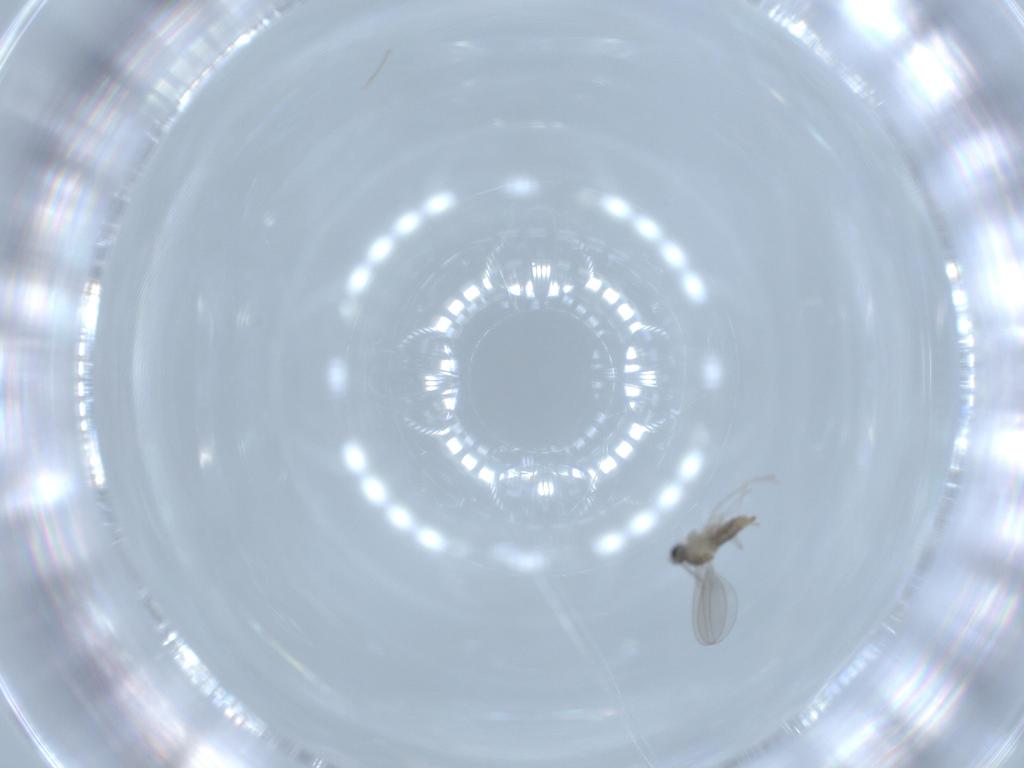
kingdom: Animalia
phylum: Arthropoda
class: Insecta
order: Diptera
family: Cecidomyiidae
